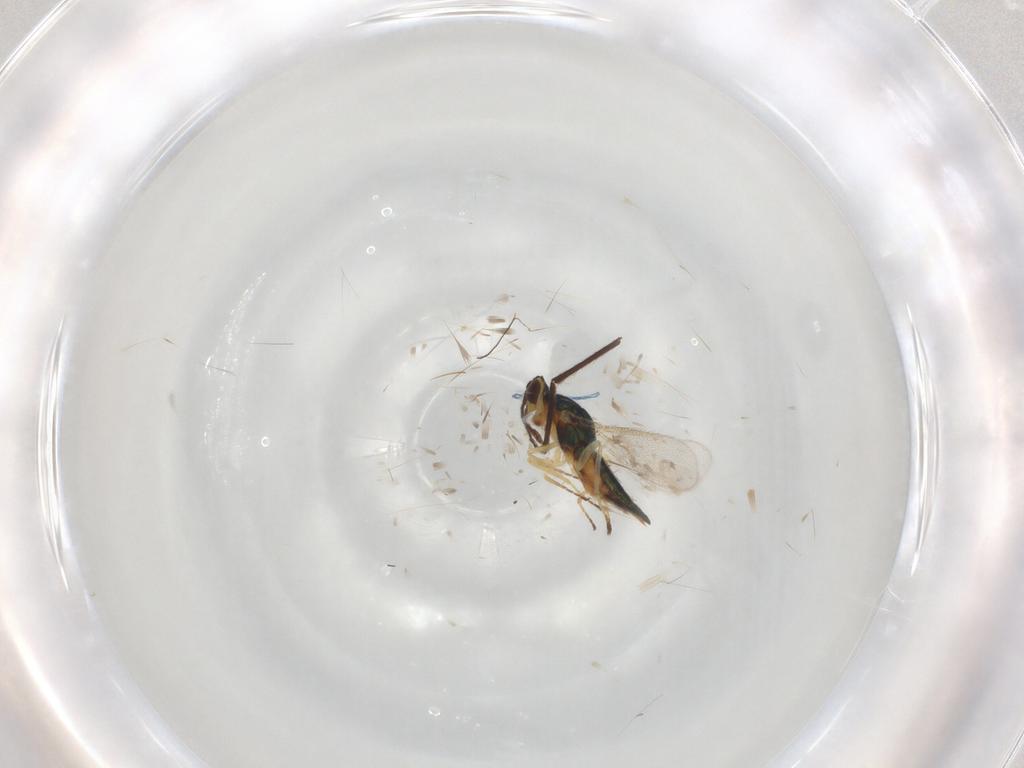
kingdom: Animalia
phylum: Arthropoda
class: Insecta
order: Hymenoptera
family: Eulophidae
